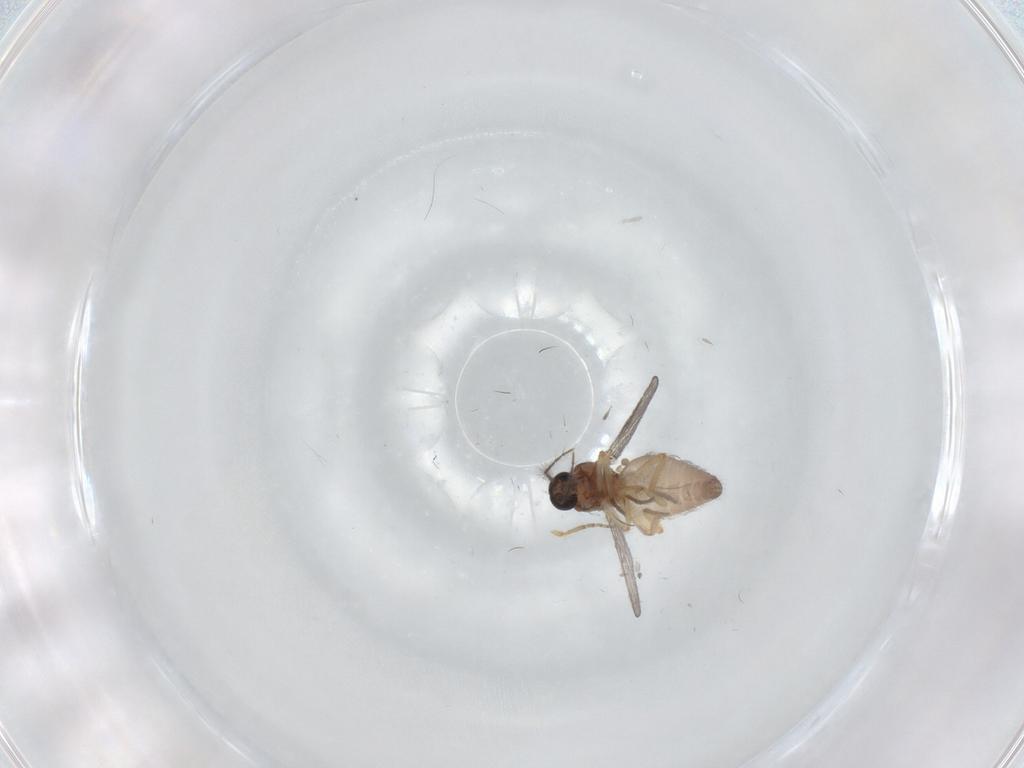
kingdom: Animalia
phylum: Arthropoda
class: Insecta
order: Diptera
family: Ceratopogonidae
